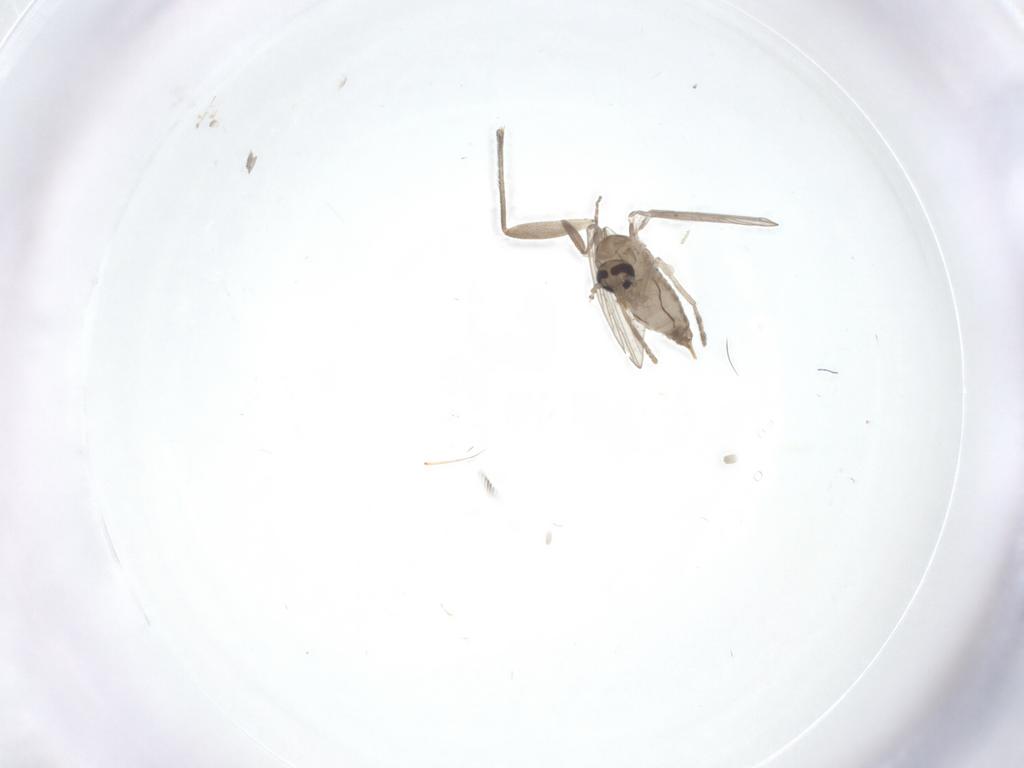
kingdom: Animalia
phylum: Arthropoda
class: Insecta
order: Diptera
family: Psychodidae
